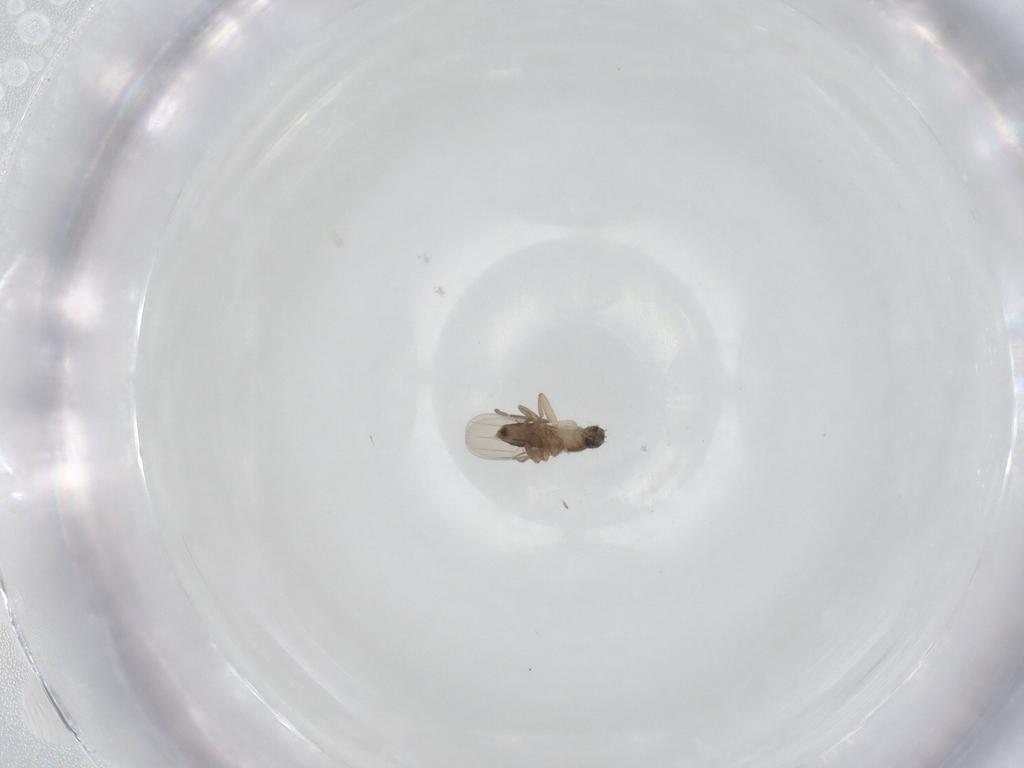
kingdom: Animalia
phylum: Arthropoda
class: Insecta
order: Diptera
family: Phoridae
